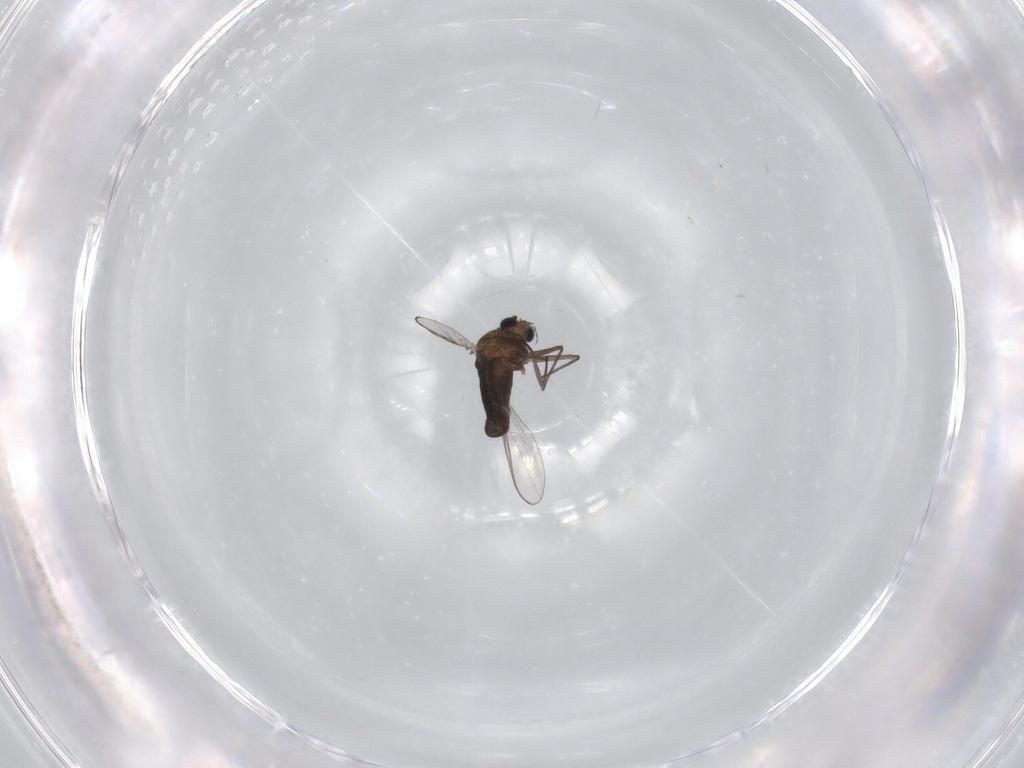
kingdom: Animalia
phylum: Arthropoda
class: Insecta
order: Diptera
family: Chironomidae
